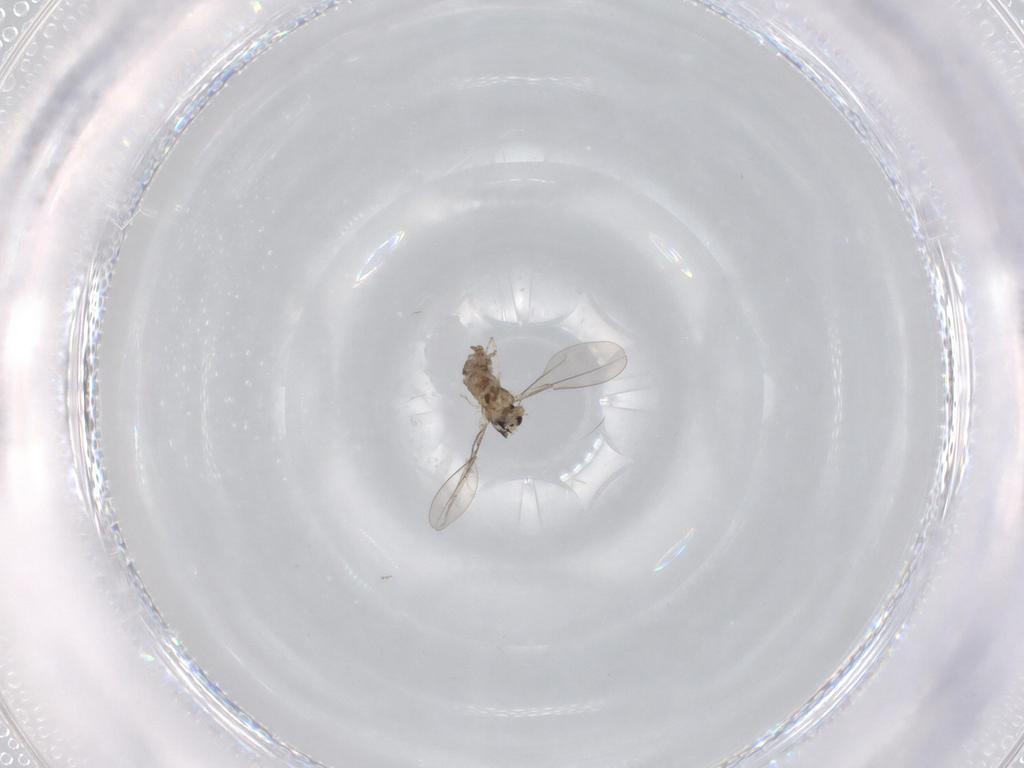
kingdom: Animalia
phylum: Arthropoda
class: Insecta
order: Diptera
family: Cecidomyiidae
